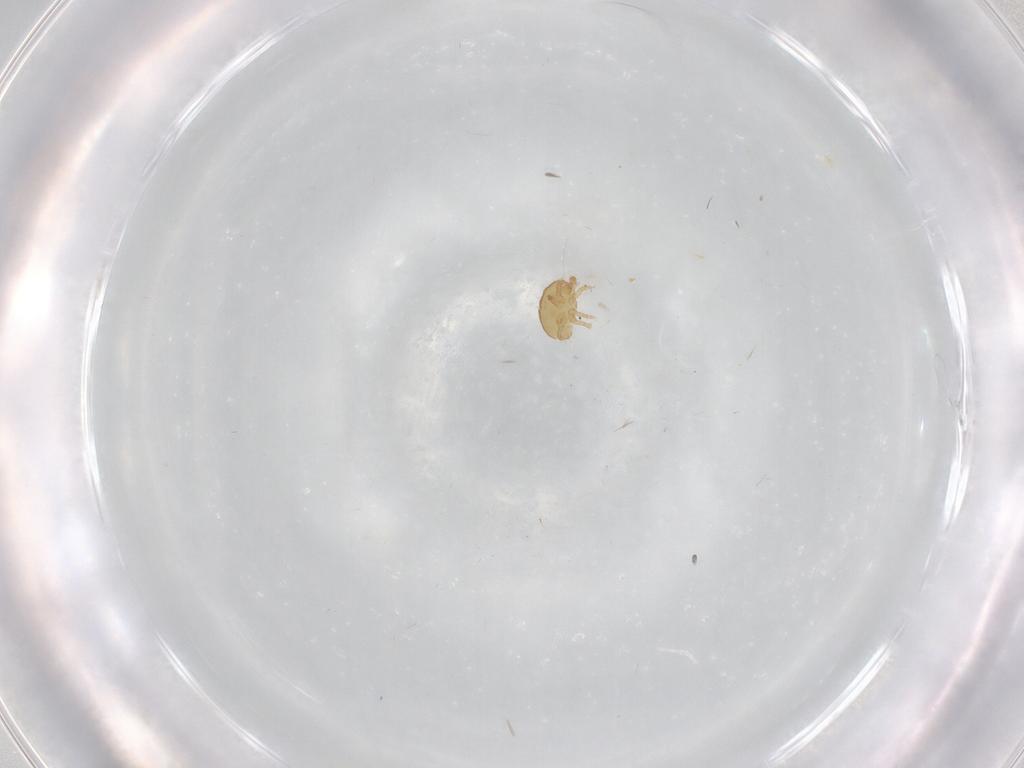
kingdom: Animalia
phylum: Arthropoda
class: Arachnida
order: Trombidiformes
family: Stigmaeidae
